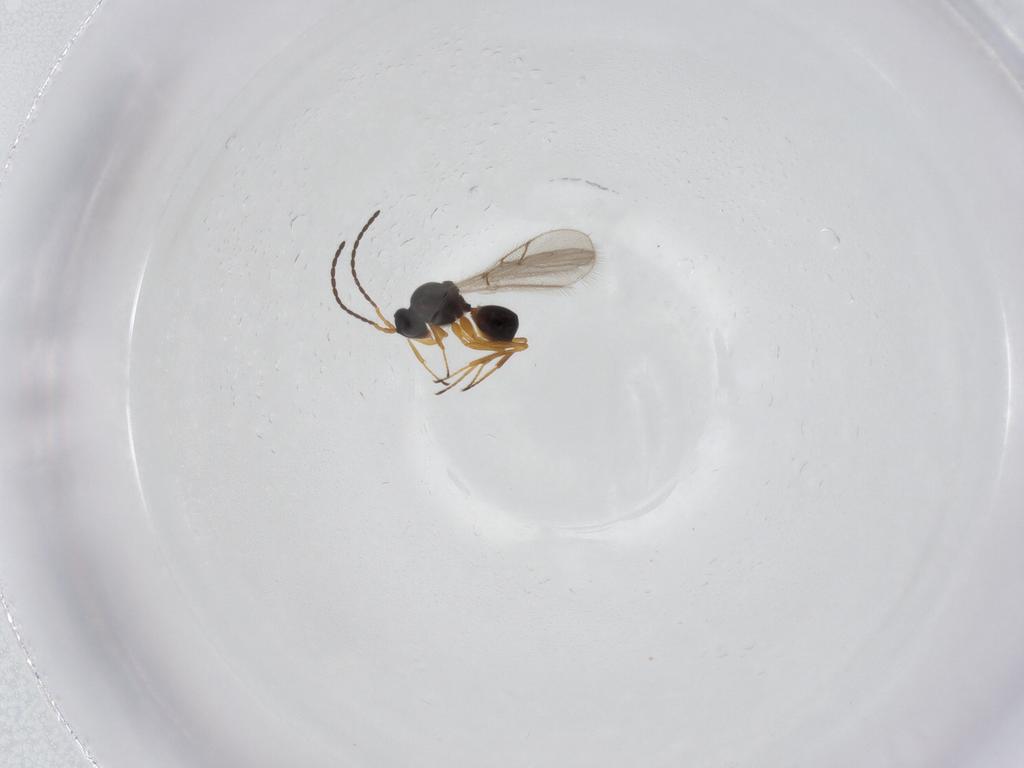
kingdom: Animalia
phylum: Arthropoda
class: Insecta
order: Hymenoptera
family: Figitidae
